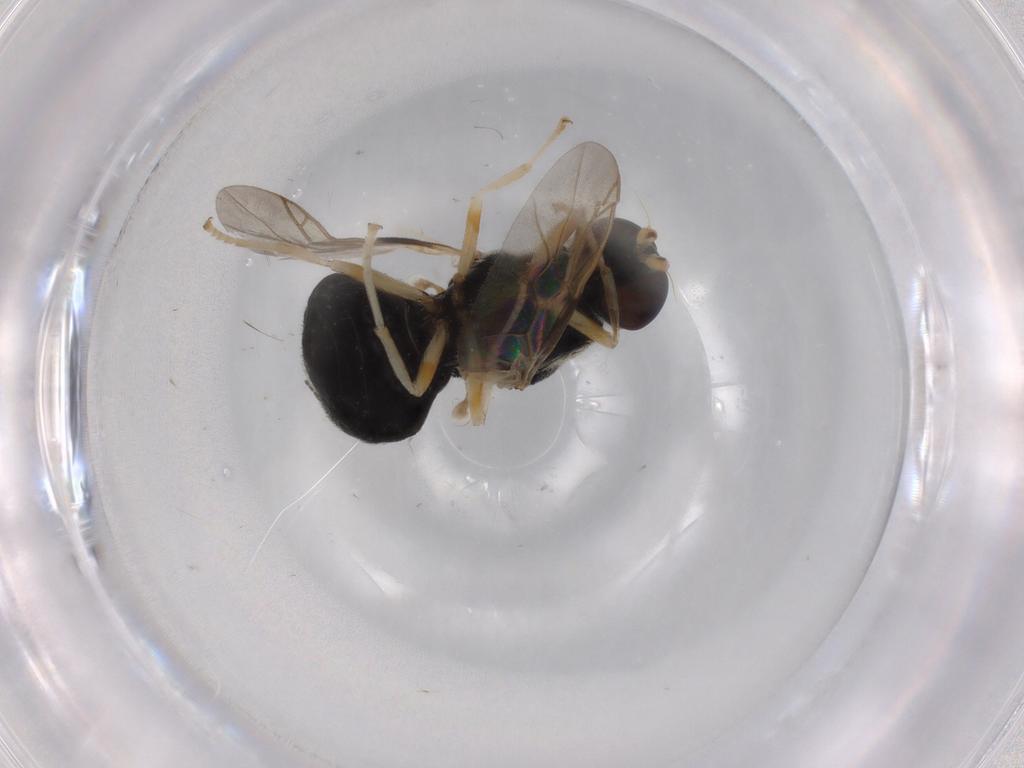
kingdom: Animalia
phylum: Arthropoda
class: Insecta
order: Diptera
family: Stratiomyidae
